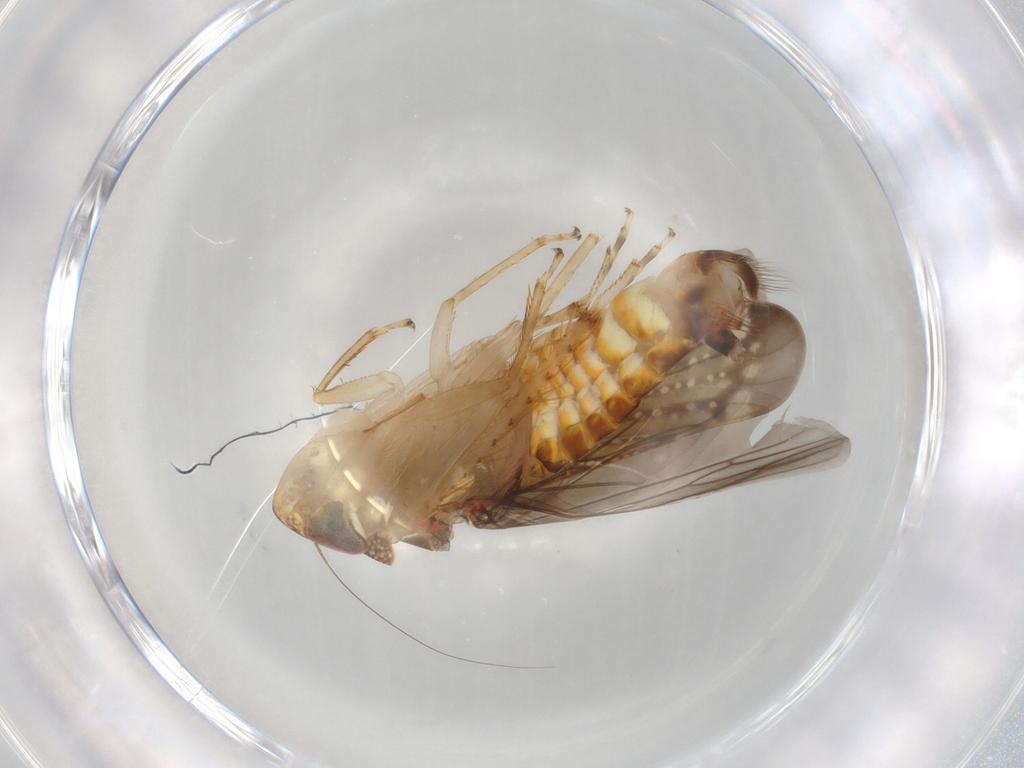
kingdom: Animalia
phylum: Arthropoda
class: Insecta
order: Hemiptera
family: Cicadellidae
